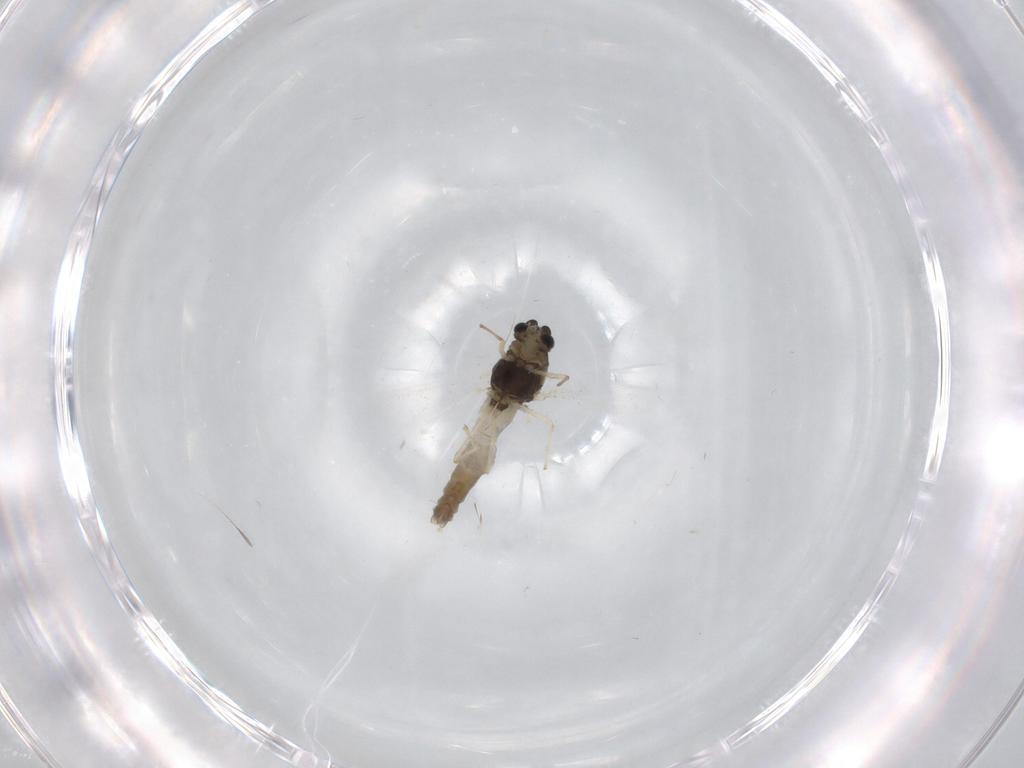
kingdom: Animalia
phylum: Arthropoda
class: Insecta
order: Diptera
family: Chironomidae
